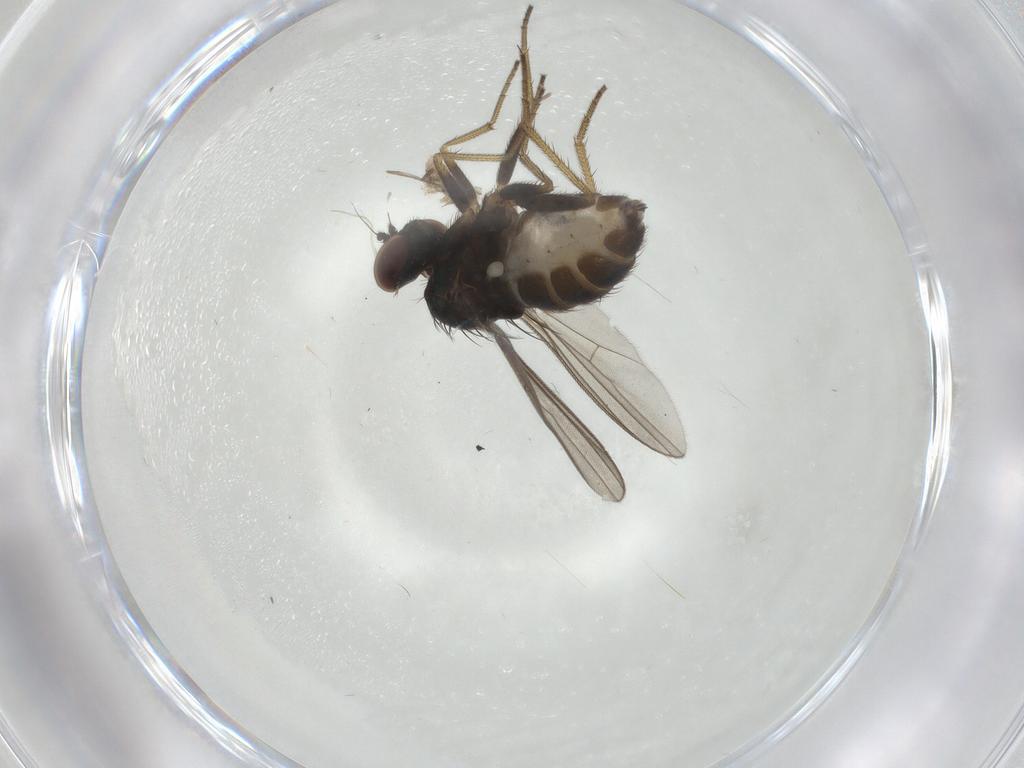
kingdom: Animalia
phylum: Arthropoda
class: Insecta
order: Diptera
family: Dolichopodidae
